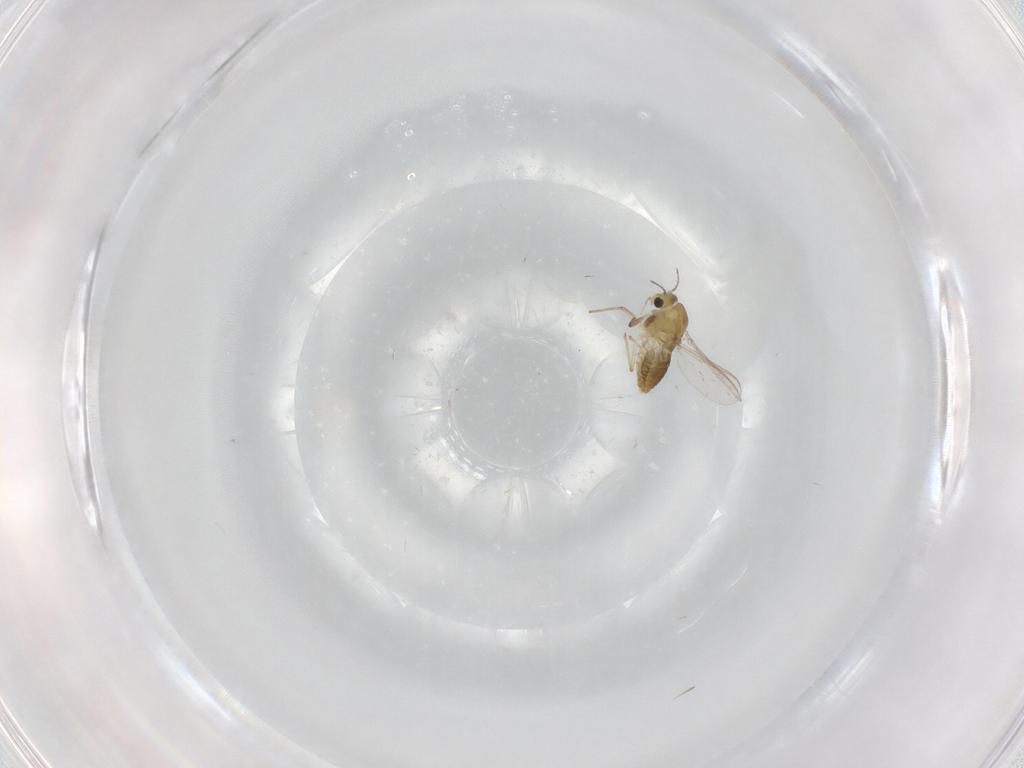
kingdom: Animalia
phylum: Arthropoda
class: Insecta
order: Diptera
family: Chironomidae
